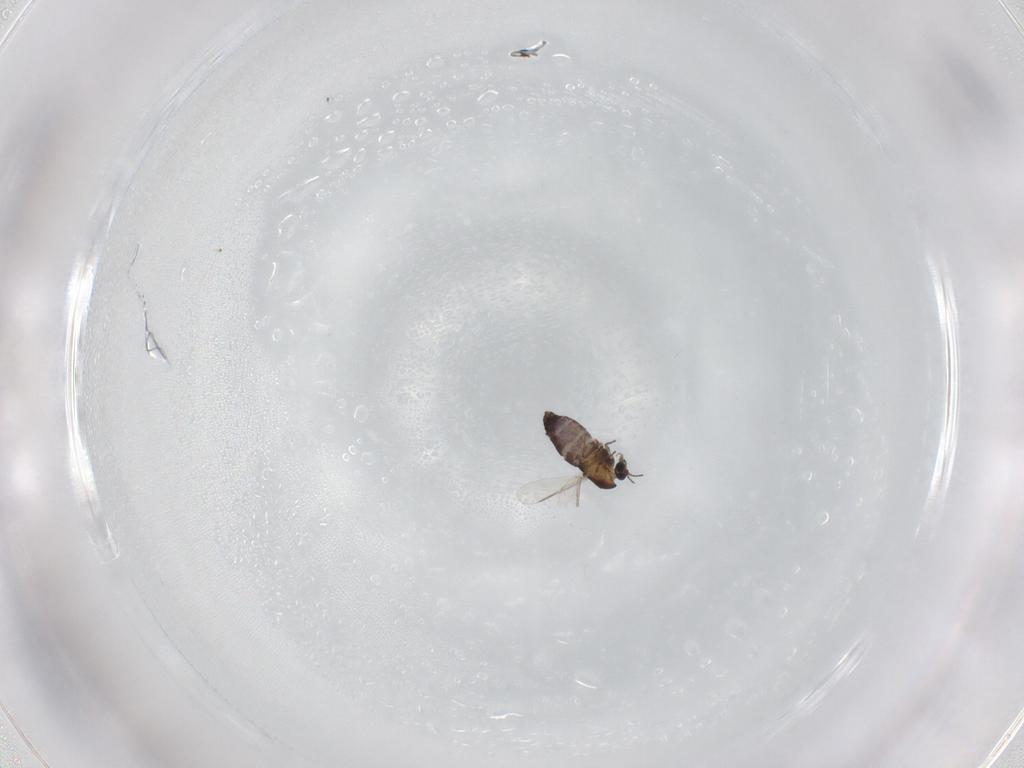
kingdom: Animalia
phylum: Arthropoda
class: Insecta
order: Diptera
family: Chironomidae
